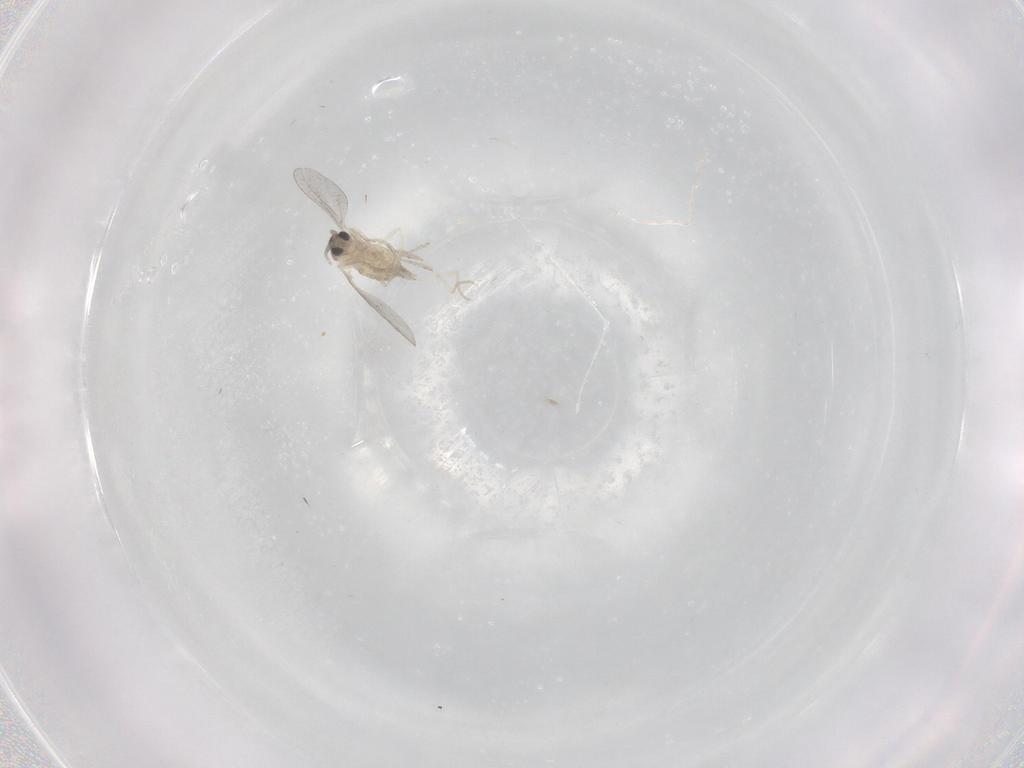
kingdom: Animalia
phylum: Arthropoda
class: Insecta
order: Diptera
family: Cecidomyiidae
